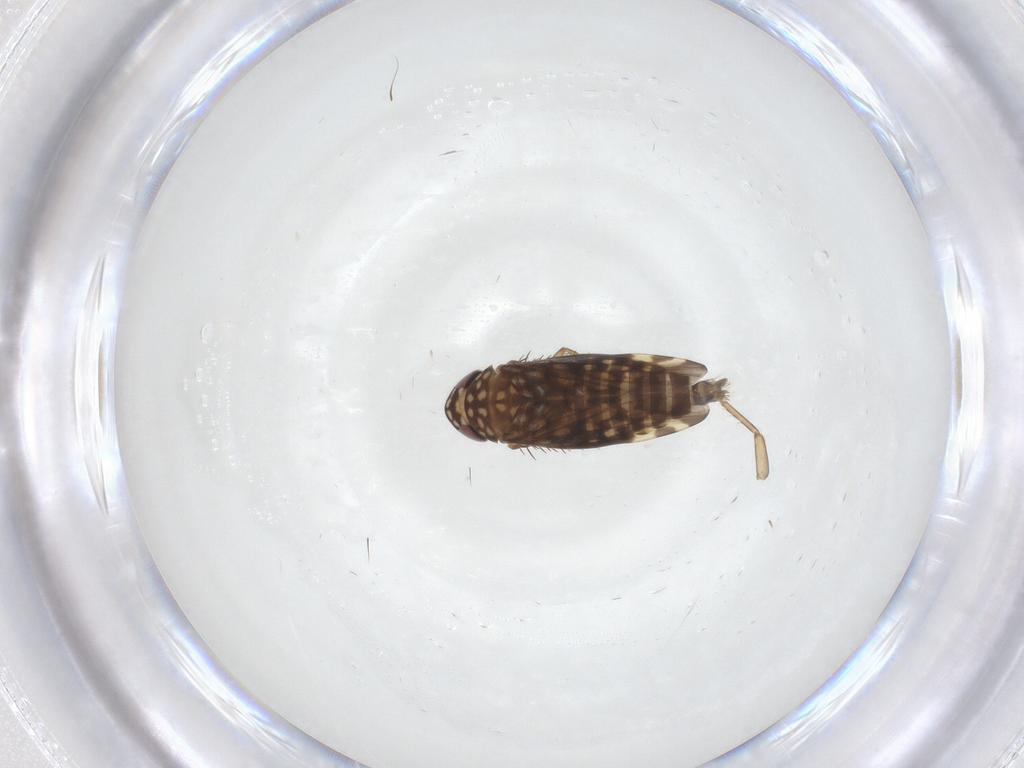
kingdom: Animalia
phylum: Arthropoda
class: Insecta
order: Hemiptera
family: Cicadellidae
